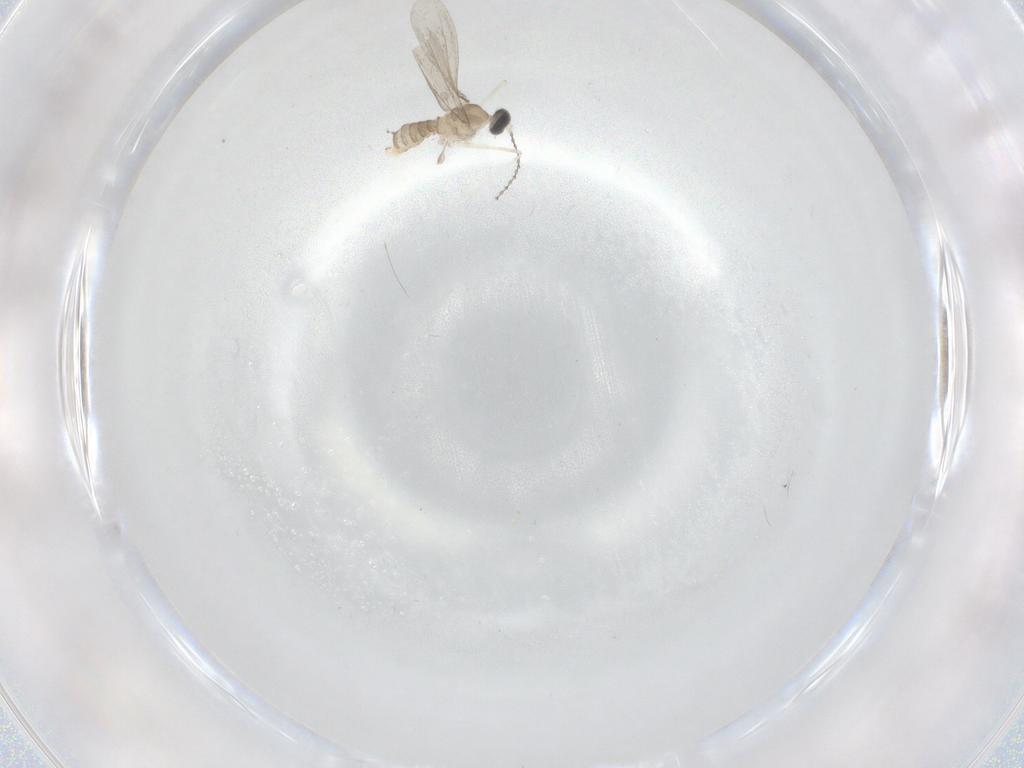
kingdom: Animalia
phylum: Arthropoda
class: Insecta
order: Diptera
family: Cecidomyiidae
